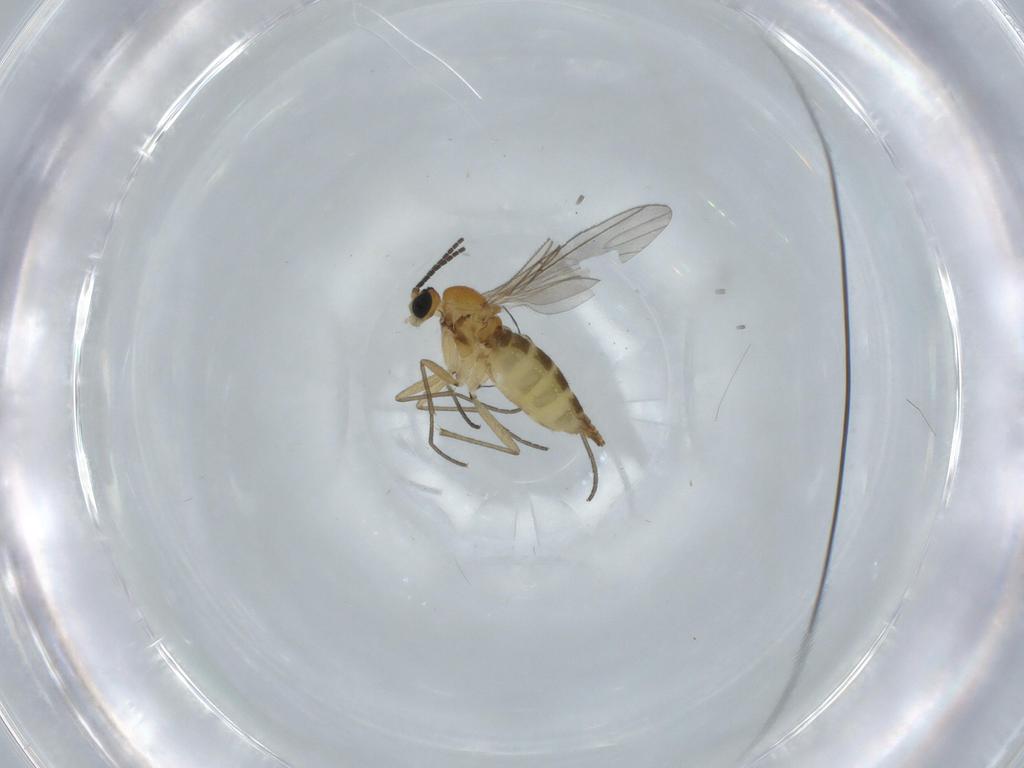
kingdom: Animalia
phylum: Arthropoda
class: Insecta
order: Diptera
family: Sciaridae
